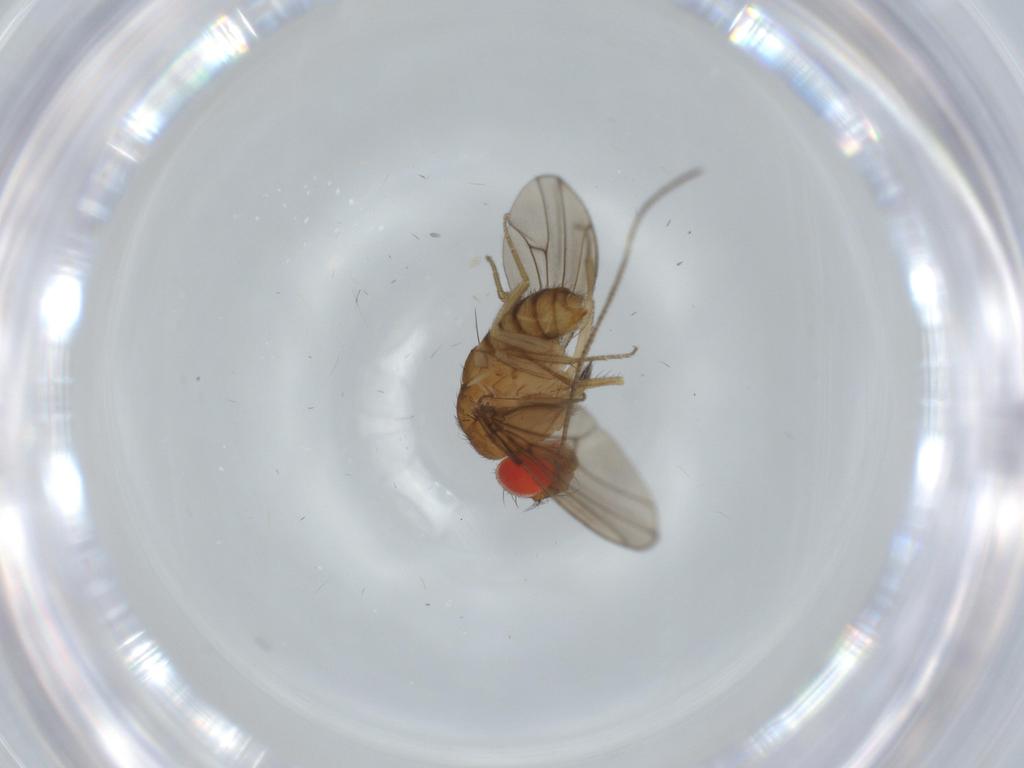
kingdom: Animalia
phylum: Arthropoda
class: Insecta
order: Diptera
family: Drosophilidae
